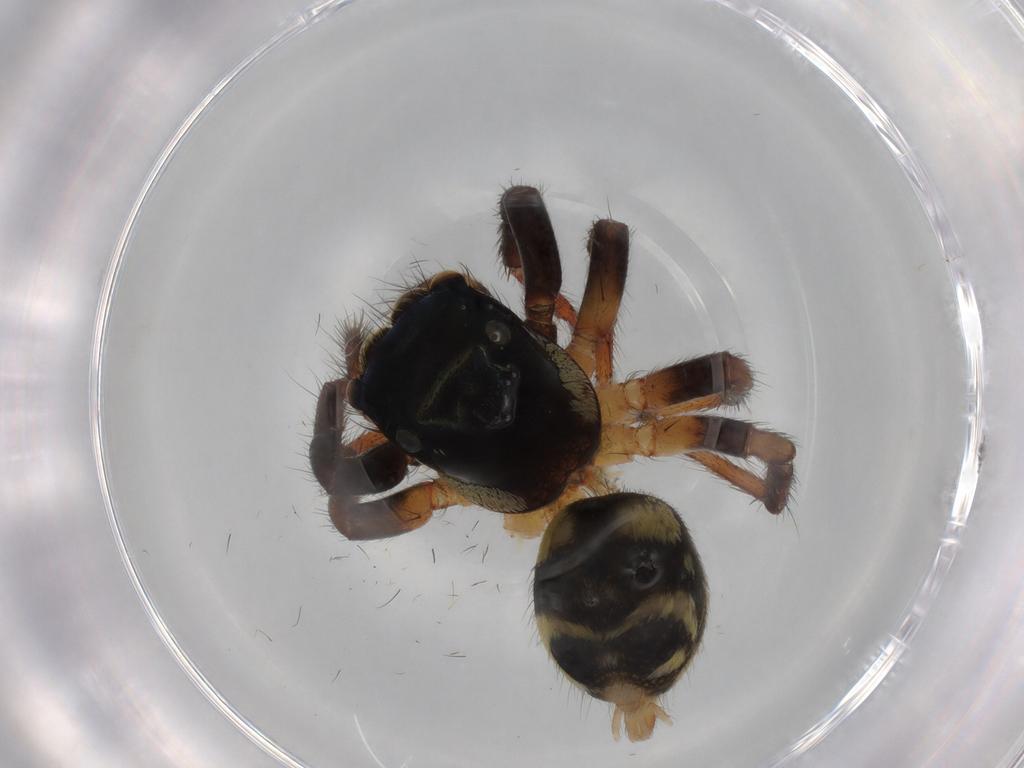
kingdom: Animalia
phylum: Arthropoda
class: Arachnida
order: Araneae
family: Salticidae
